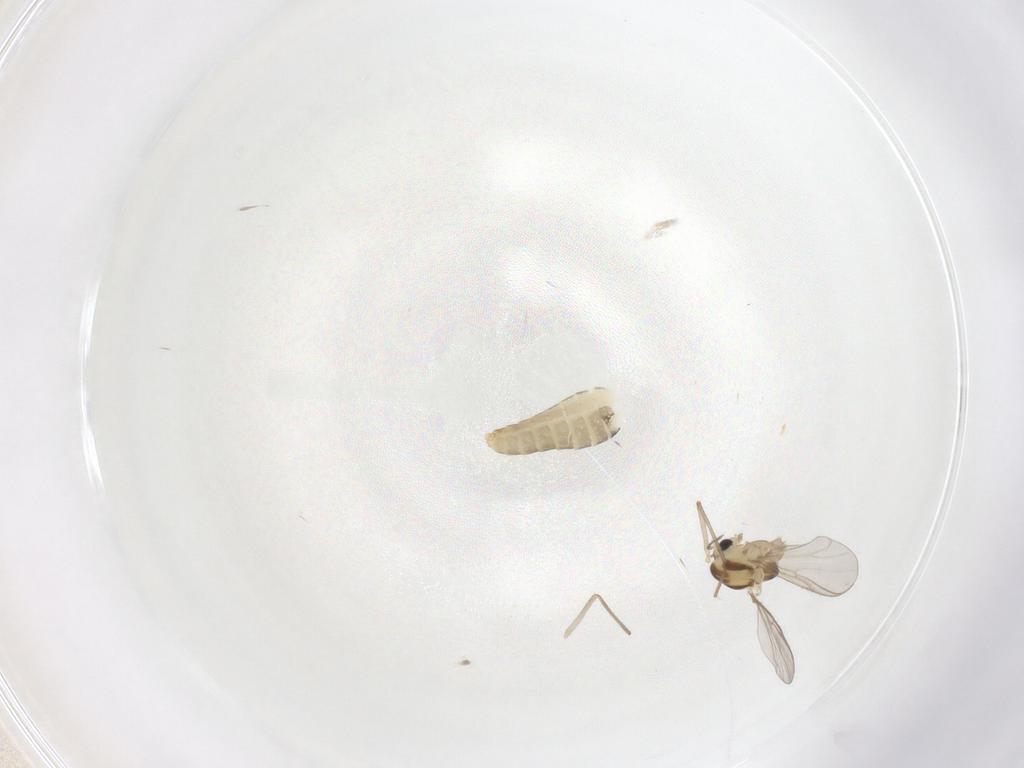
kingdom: Animalia
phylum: Arthropoda
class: Insecta
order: Diptera
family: Chironomidae
